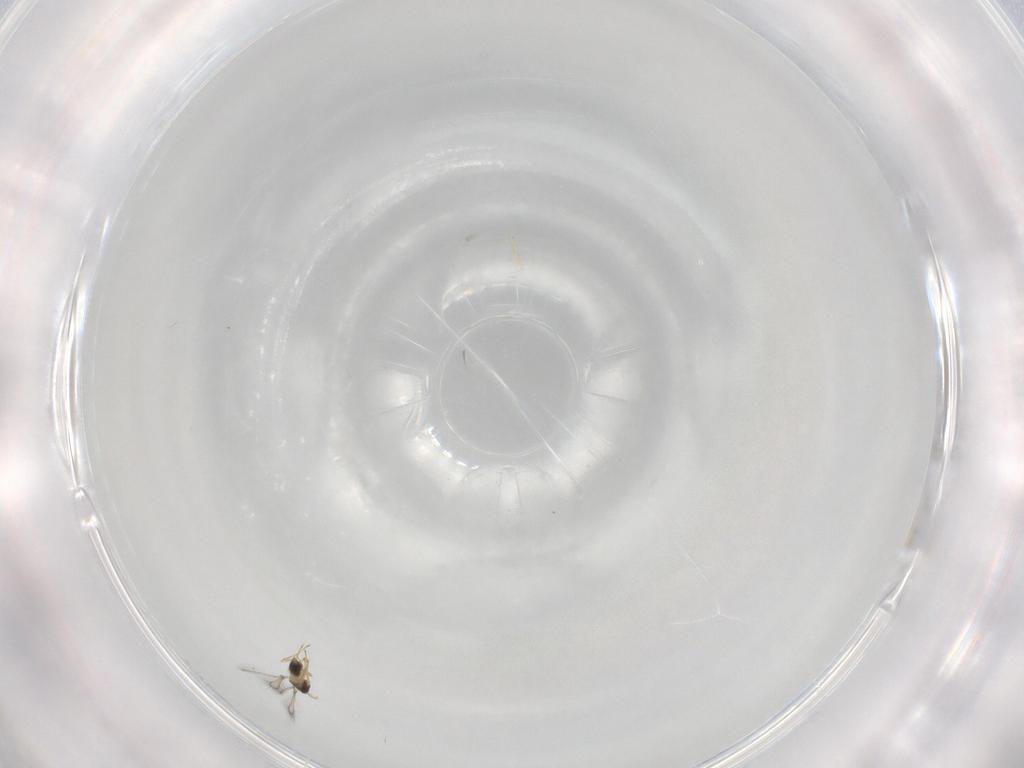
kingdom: Animalia
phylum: Arthropoda
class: Insecta
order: Hymenoptera
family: Mymaridae
